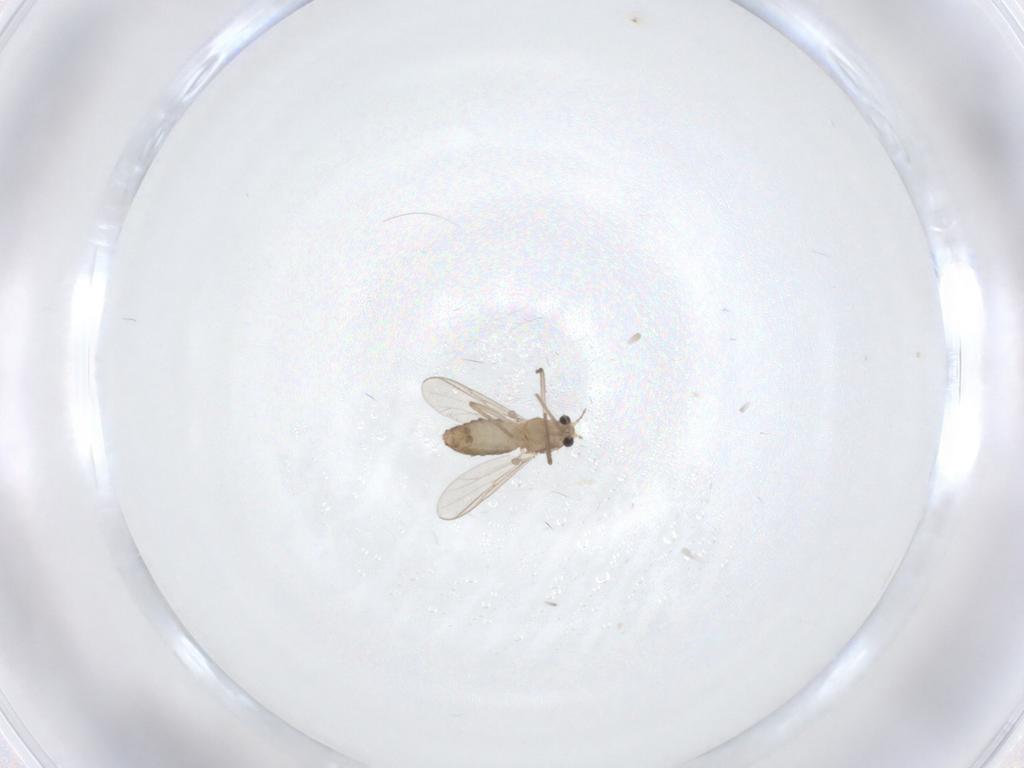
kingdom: Animalia
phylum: Arthropoda
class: Insecta
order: Diptera
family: Chironomidae
